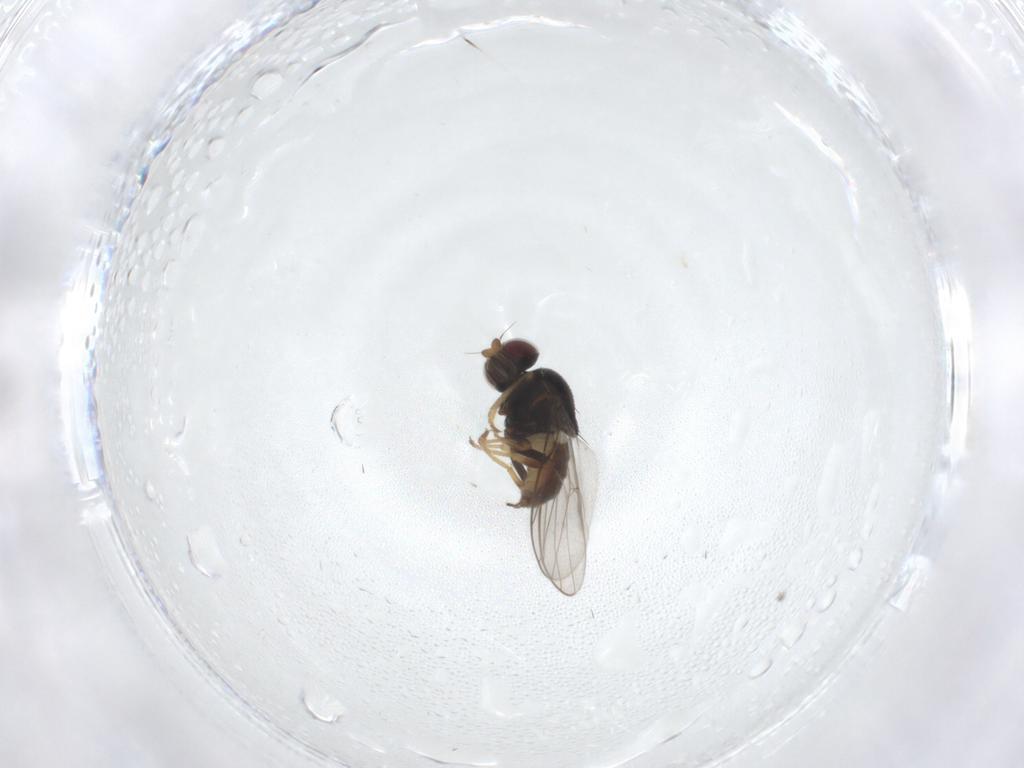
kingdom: Animalia
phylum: Arthropoda
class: Insecta
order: Diptera
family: Chloropidae
